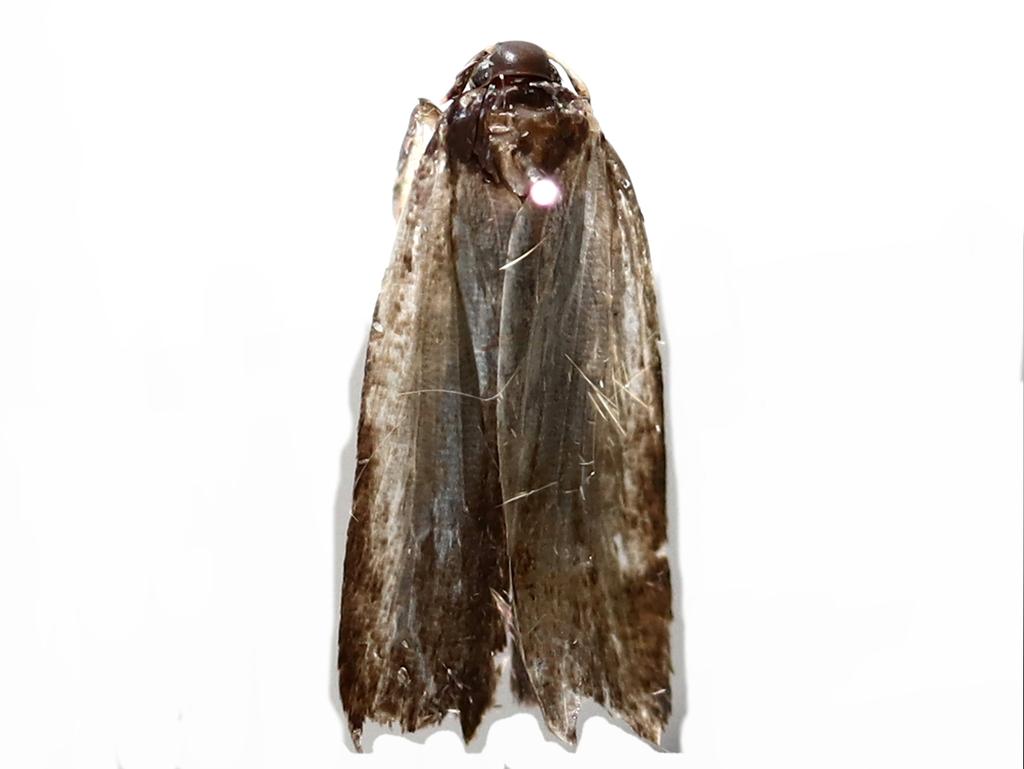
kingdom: Animalia
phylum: Arthropoda
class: Insecta
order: Diptera
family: Cecidomyiidae
